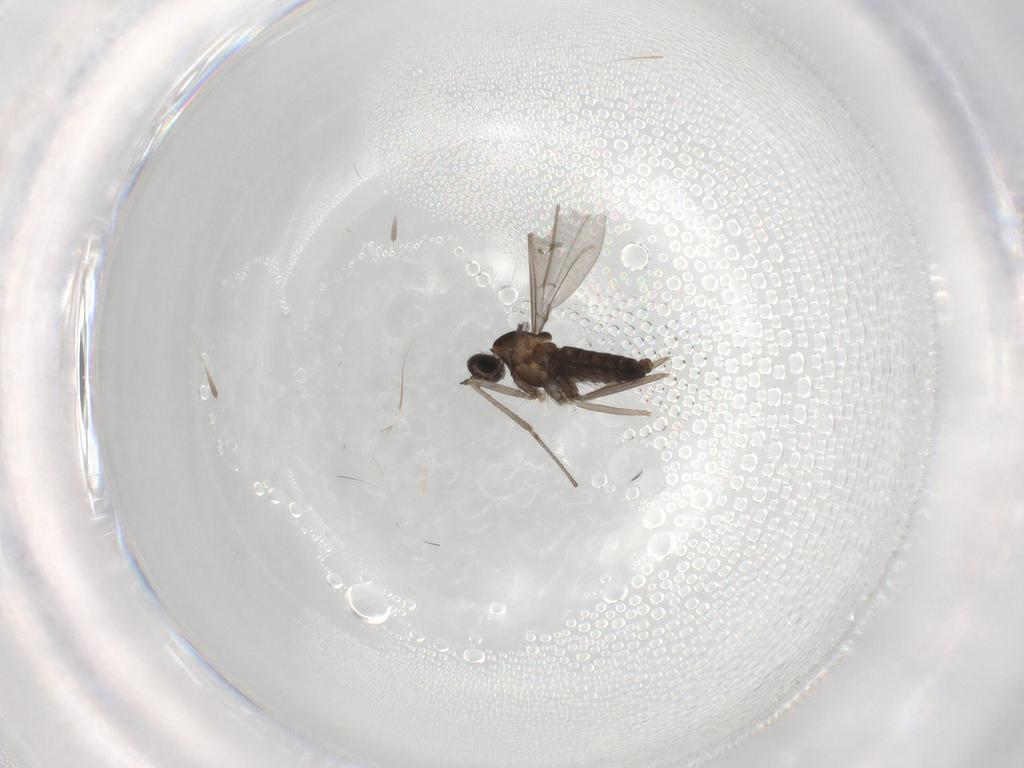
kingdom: Animalia
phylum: Arthropoda
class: Insecta
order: Diptera
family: Cecidomyiidae
